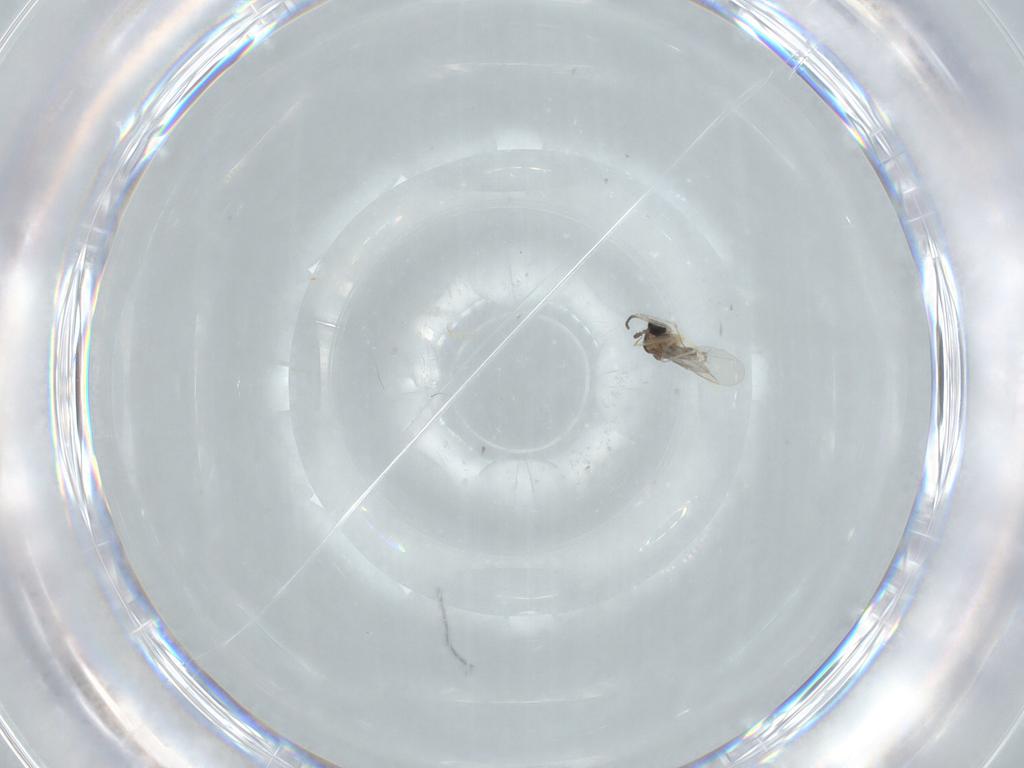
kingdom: Animalia
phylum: Arthropoda
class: Insecta
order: Diptera
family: Cecidomyiidae
